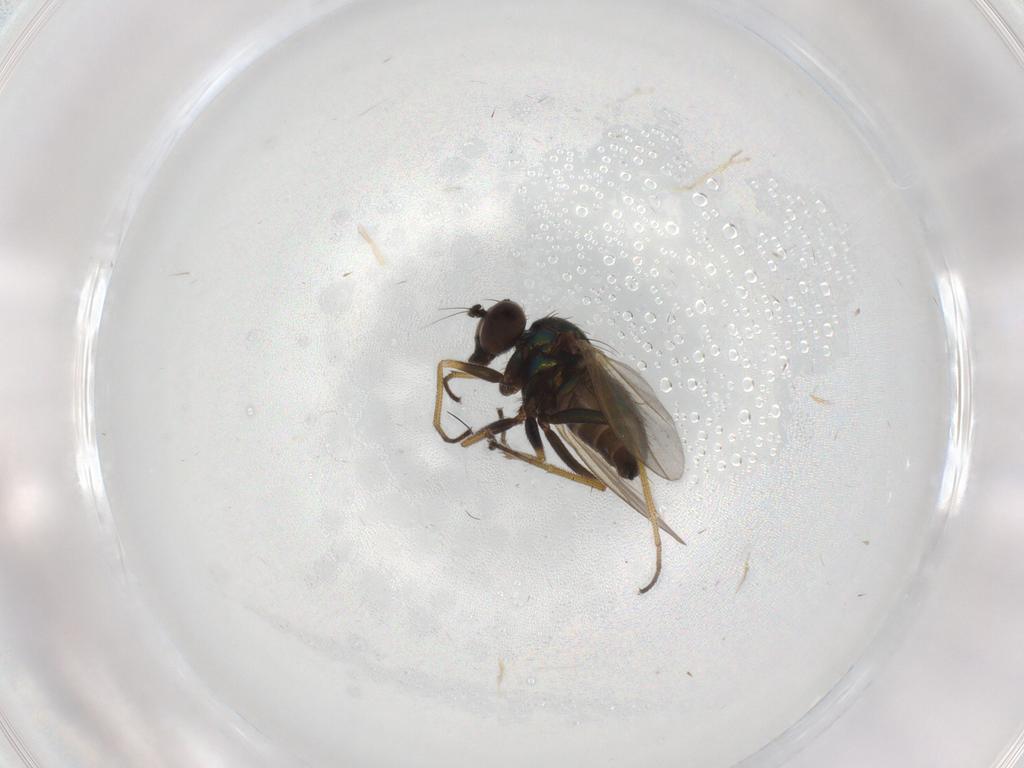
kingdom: Animalia
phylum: Arthropoda
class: Insecta
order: Diptera
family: Dolichopodidae
